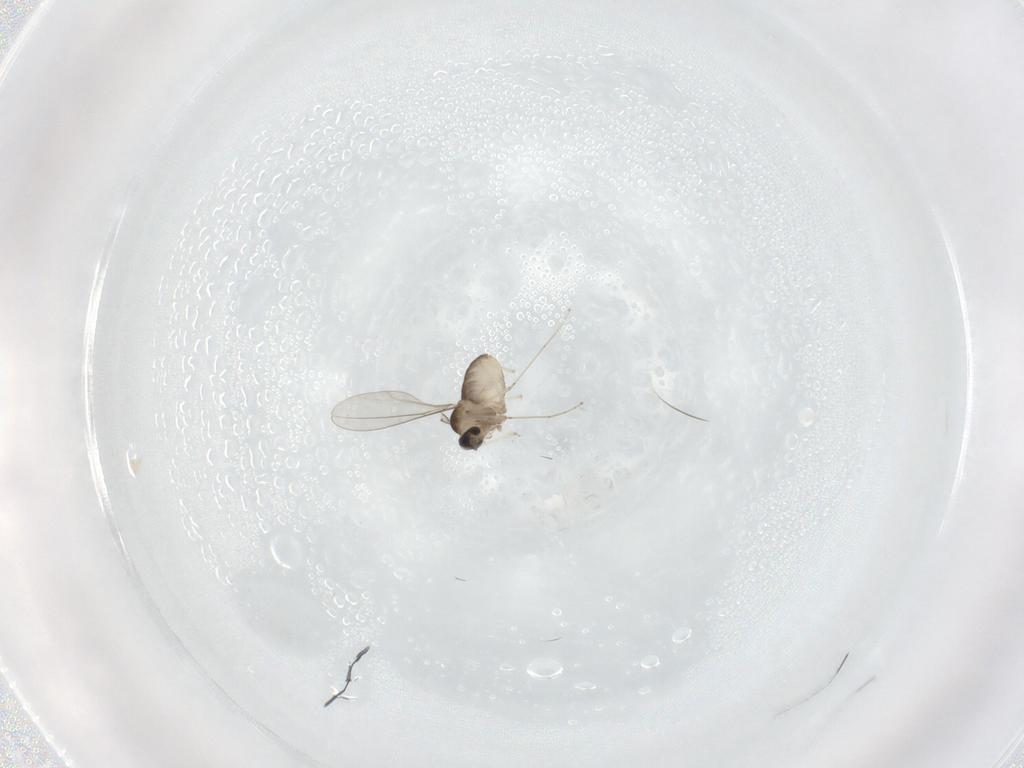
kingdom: Animalia
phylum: Arthropoda
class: Insecta
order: Diptera
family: Cecidomyiidae
